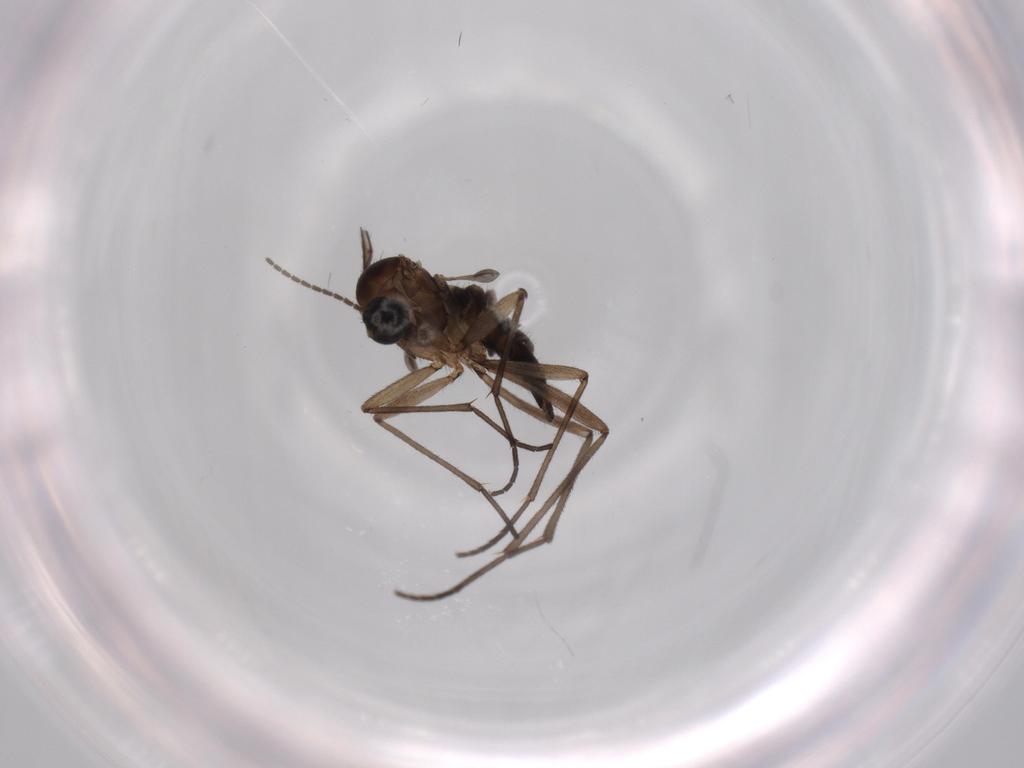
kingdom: Animalia
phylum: Arthropoda
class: Insecta
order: Diptera
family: Sciaridae
